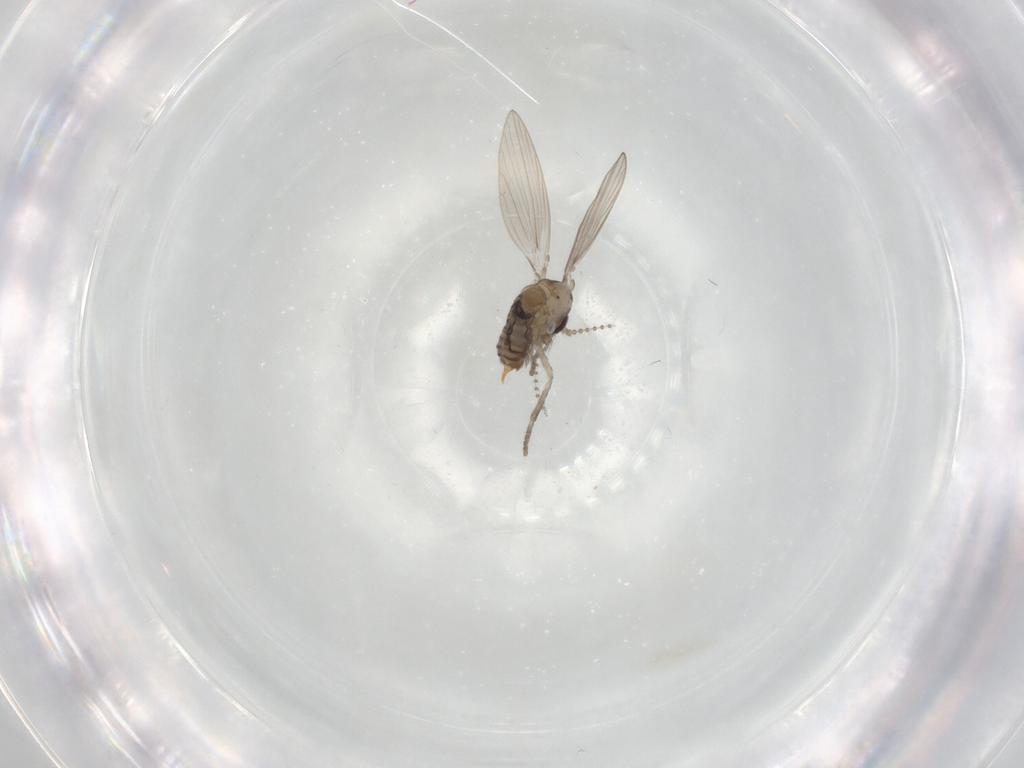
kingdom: Animalia
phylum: Arthropoda
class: Insecta
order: Diptera
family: Psychodidae
